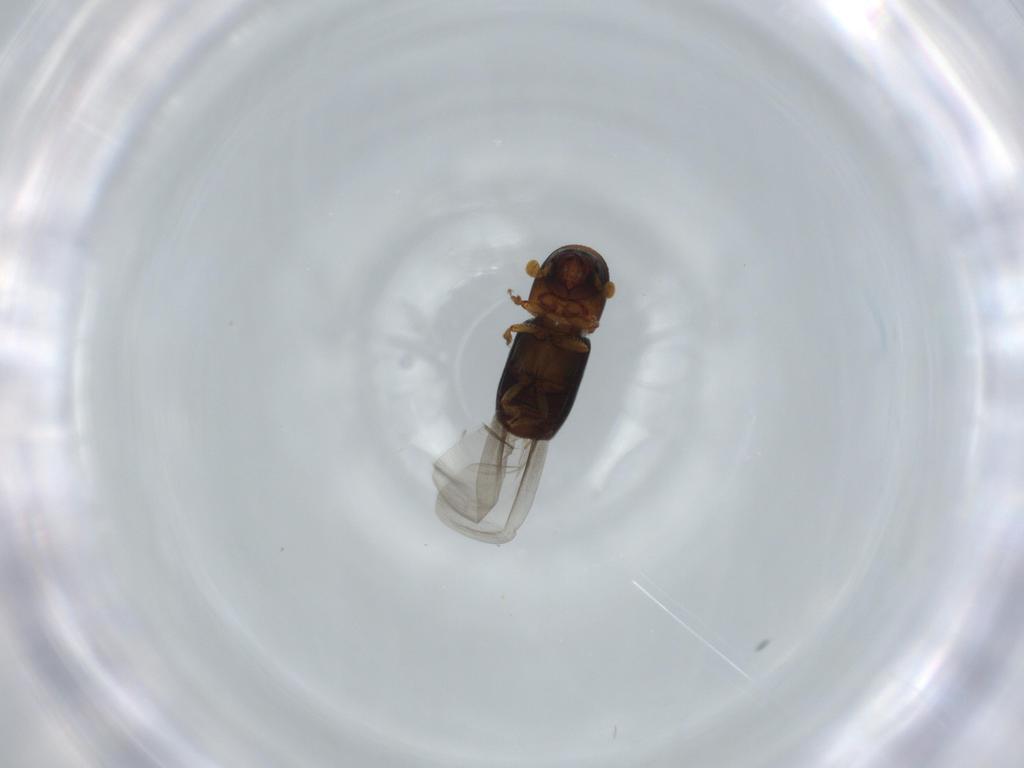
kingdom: Animalia
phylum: Arthropoda
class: Insecta
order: Coleoptera
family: Curculionidae
